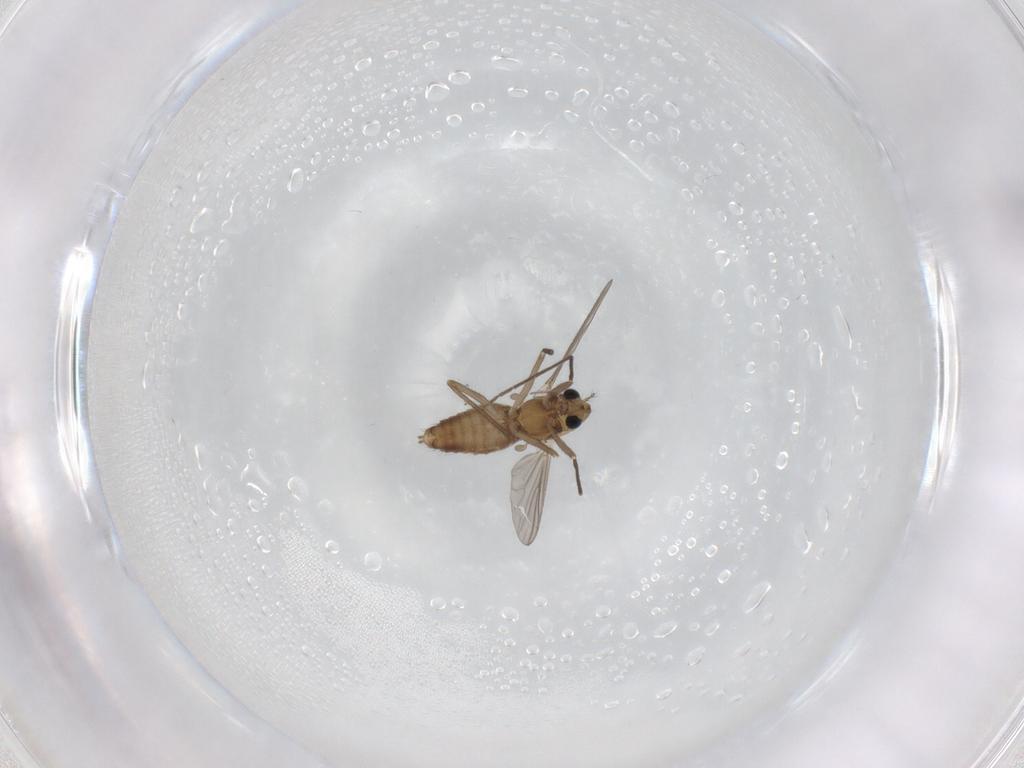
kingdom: Animalia
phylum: Arthropoda
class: Insecta
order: Diptera
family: Chironomidae
